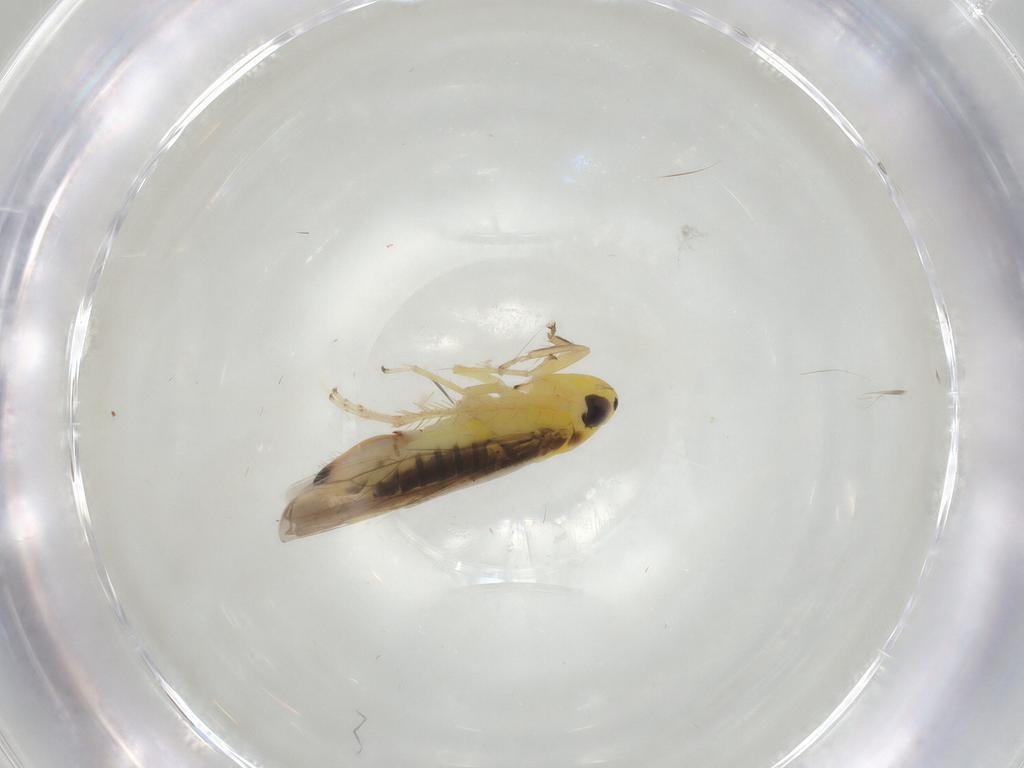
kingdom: Animalia
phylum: Arthropoda
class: Insecta
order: Hemiptera
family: Cicadellidae
